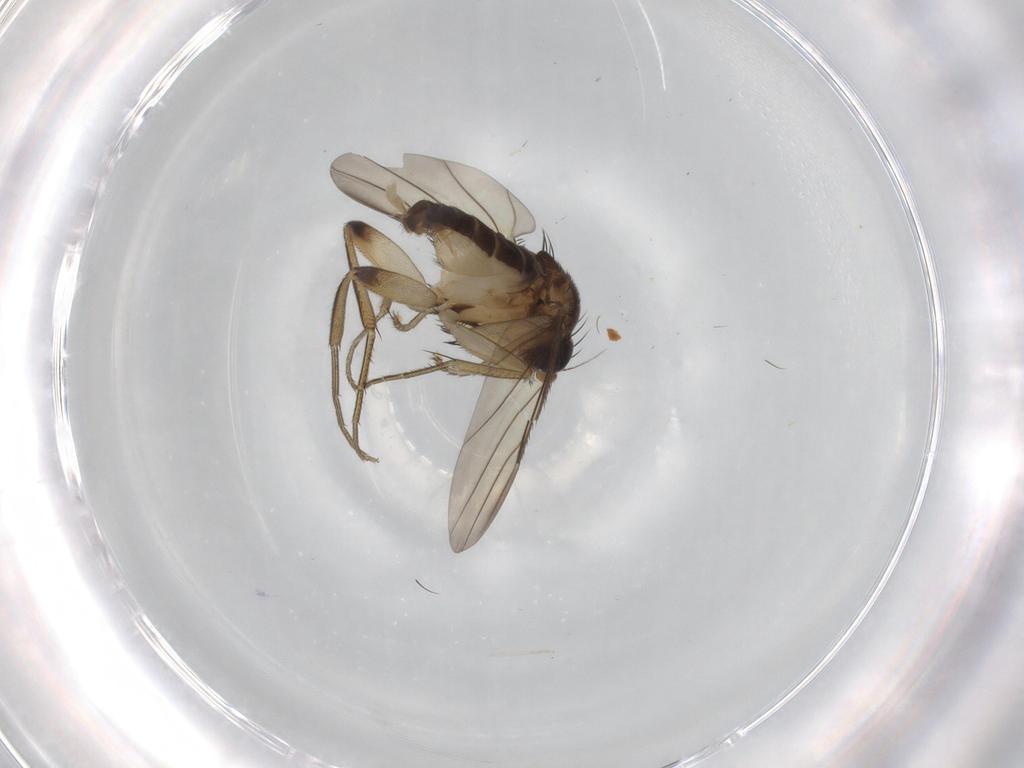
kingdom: Animalia
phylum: Arthropoda
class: Insecta
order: Diptera
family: Phoridae
